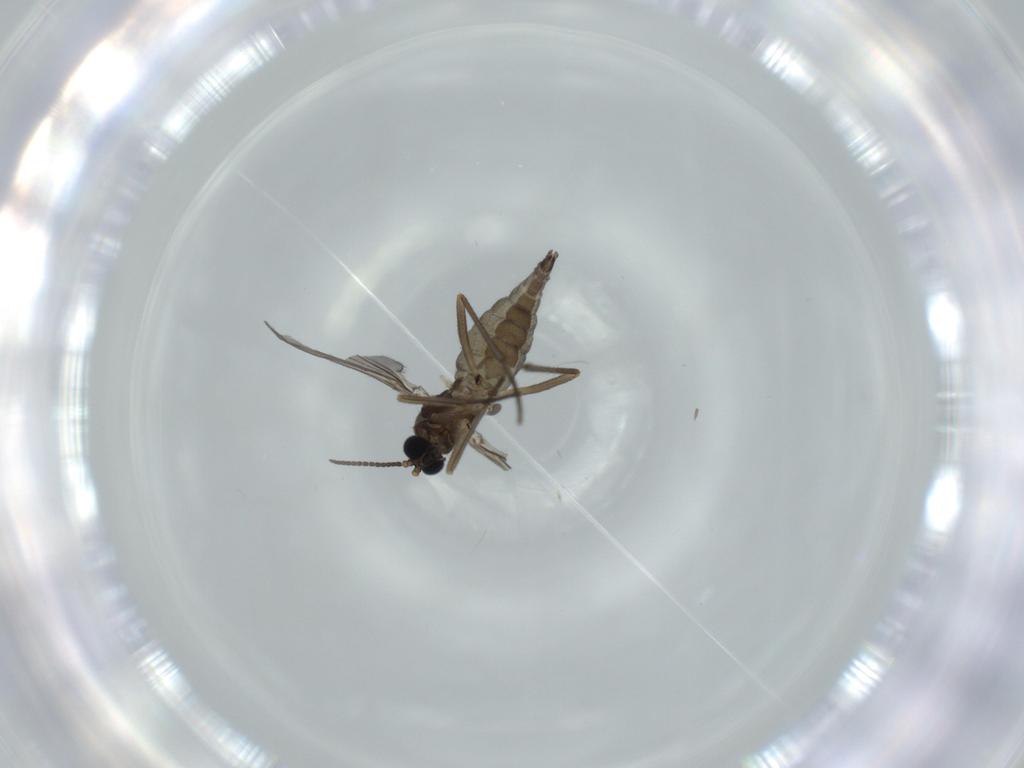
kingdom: Animalia
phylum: Arthropoda
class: Insecta
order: Diptera
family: Sciaridae
